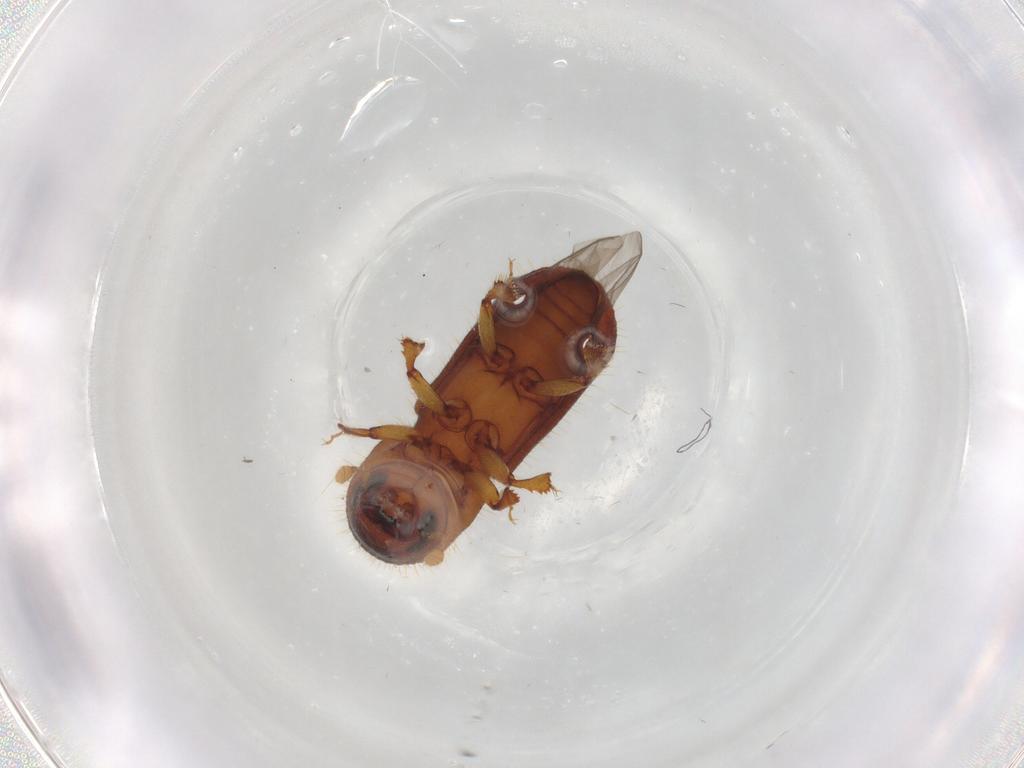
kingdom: Animalia
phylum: Arthropoda
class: Insecta
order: Coleoptera
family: Curculionidae
